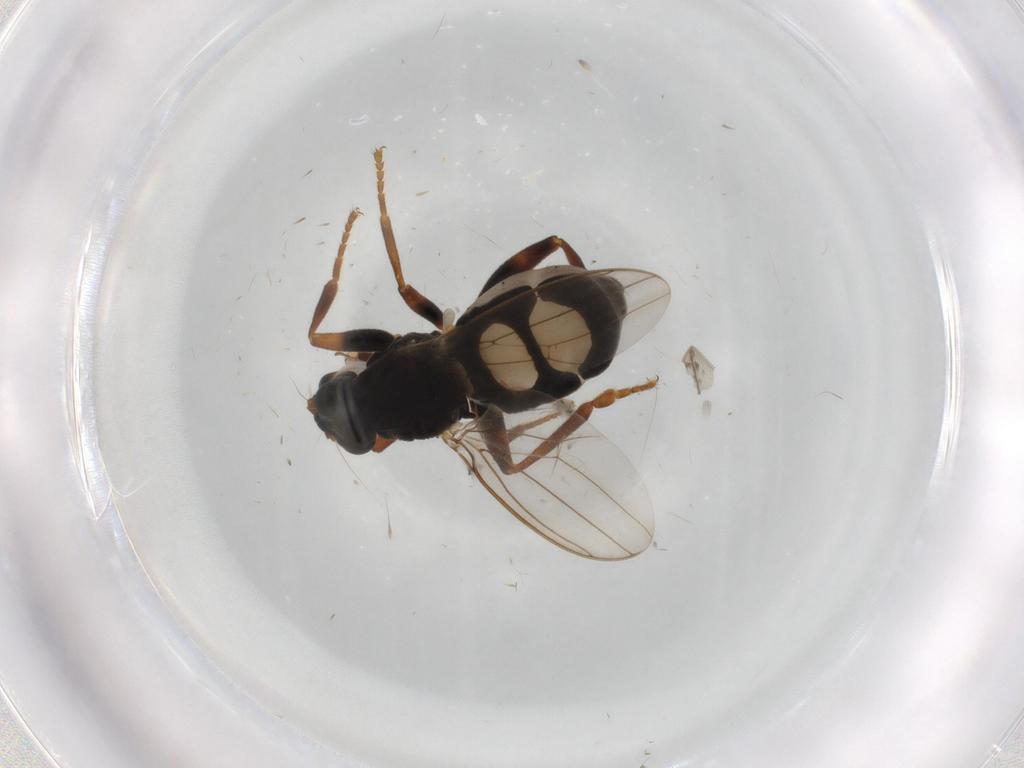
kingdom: Animalia
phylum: Arthropoda
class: Insecta
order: Diptera
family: Sphaeroceridae
